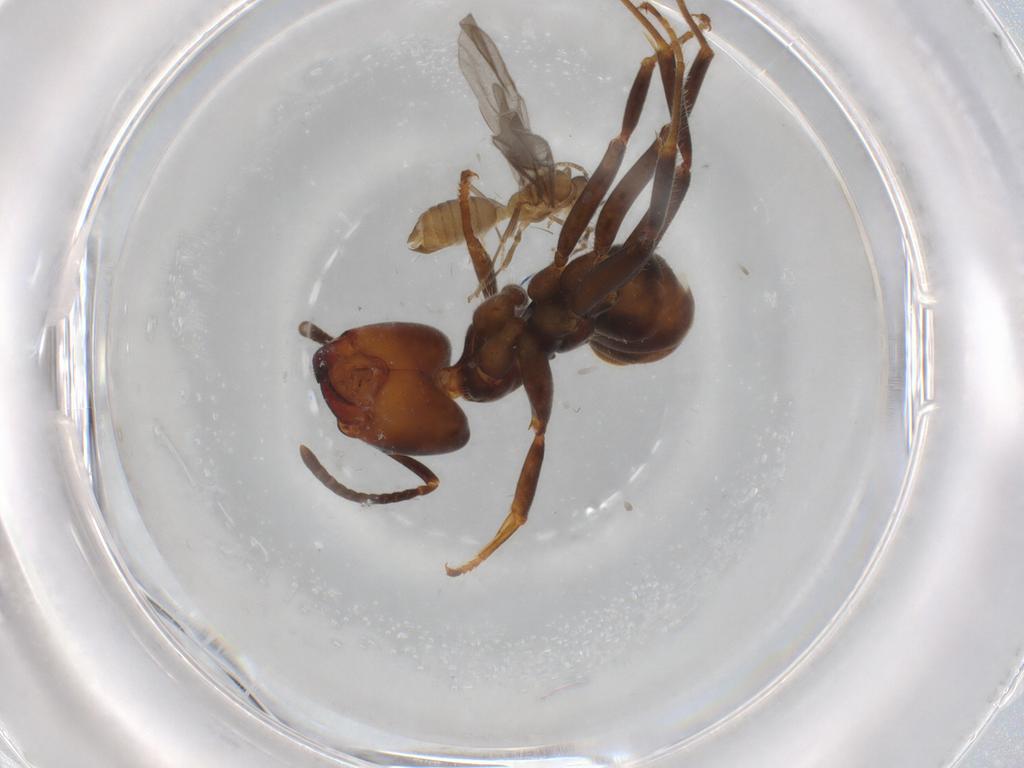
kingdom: Animalia
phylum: Arthropoda
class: Insecta
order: Hymenoptera
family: Formicidae
